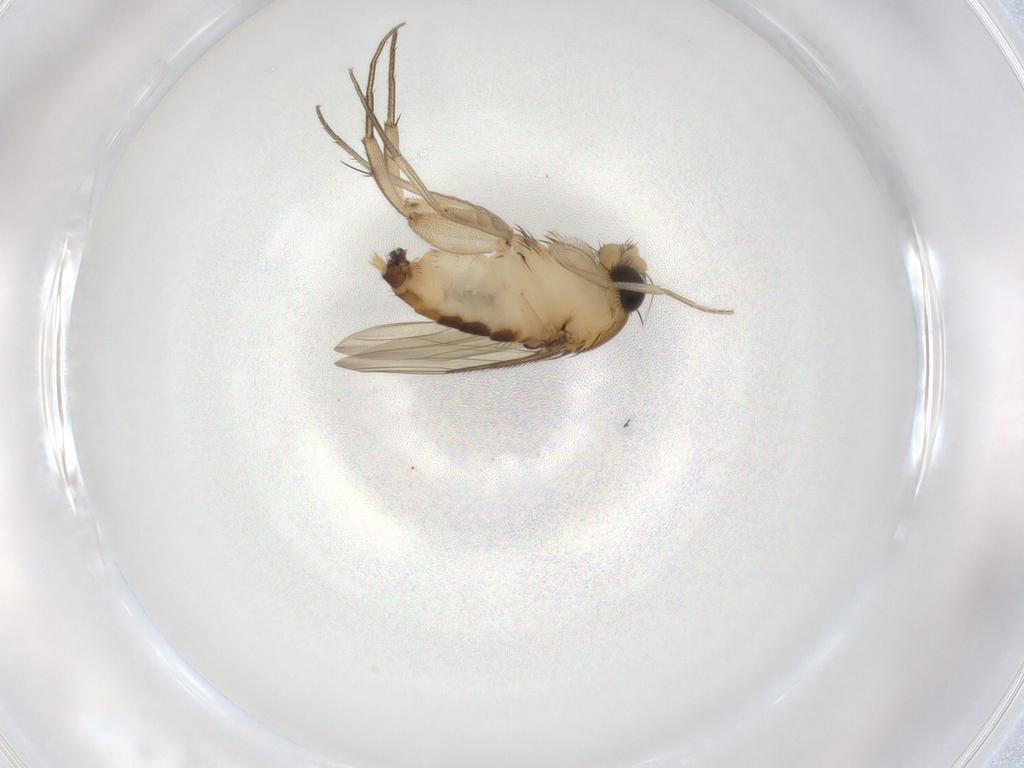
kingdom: Animalia
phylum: Arthropoda
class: Insecta
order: Diptera
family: Phoridae
